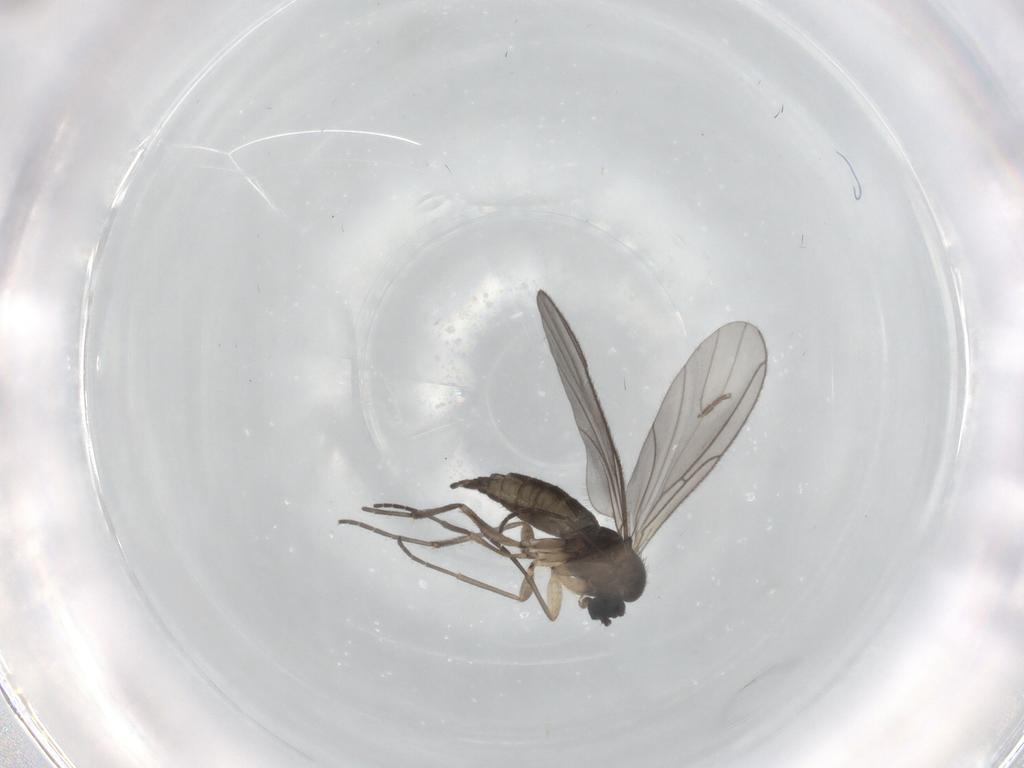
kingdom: Animalia
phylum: Arthropoda
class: Insecta
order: Diptera
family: Sciaridae
